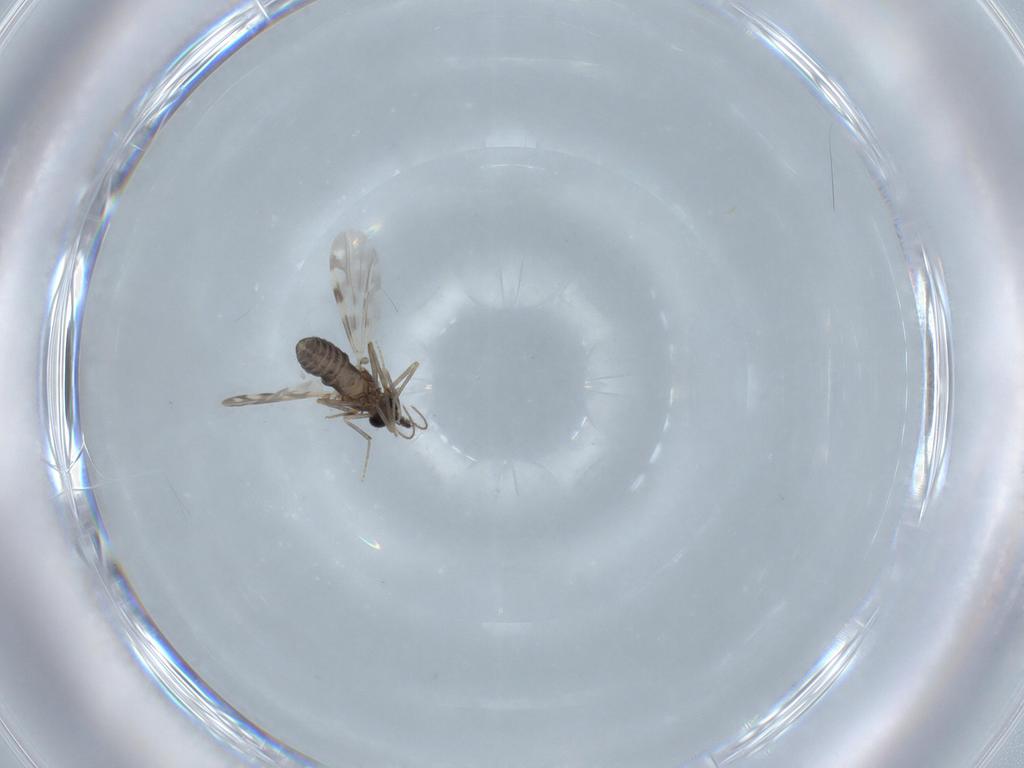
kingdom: Animalia
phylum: Arthropoda
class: Insecta
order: Diptera
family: Ceratopogonidae
